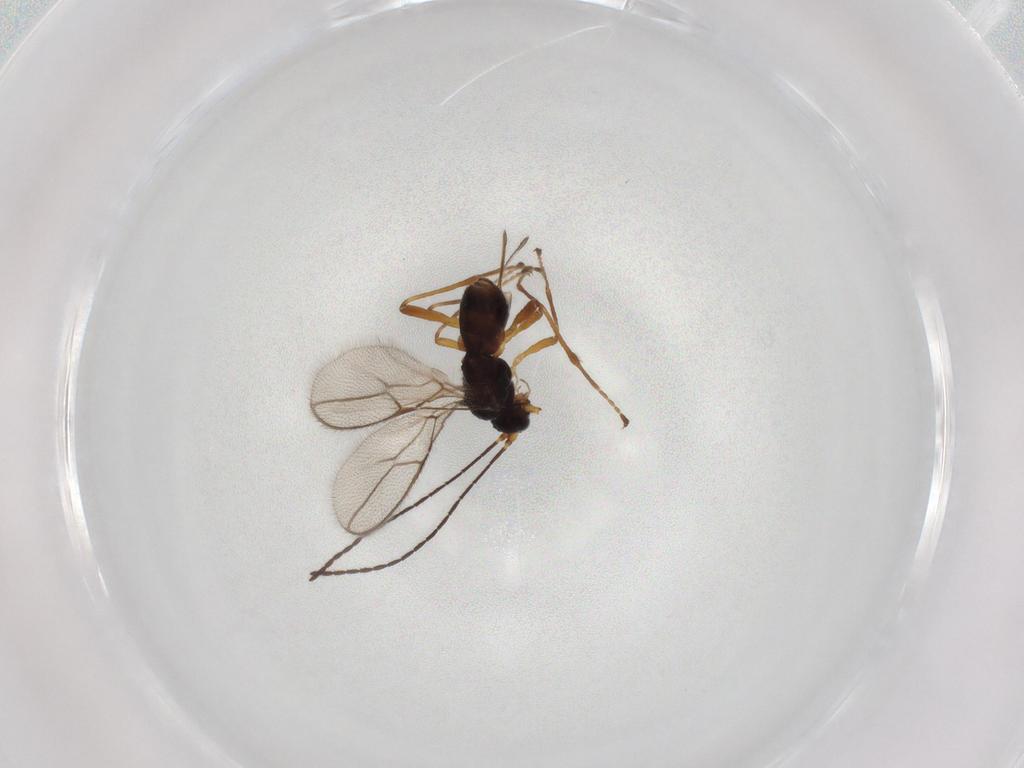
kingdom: Animalia
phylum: Arthropoda
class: Insecta
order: Hymenoptera
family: Braconidae
